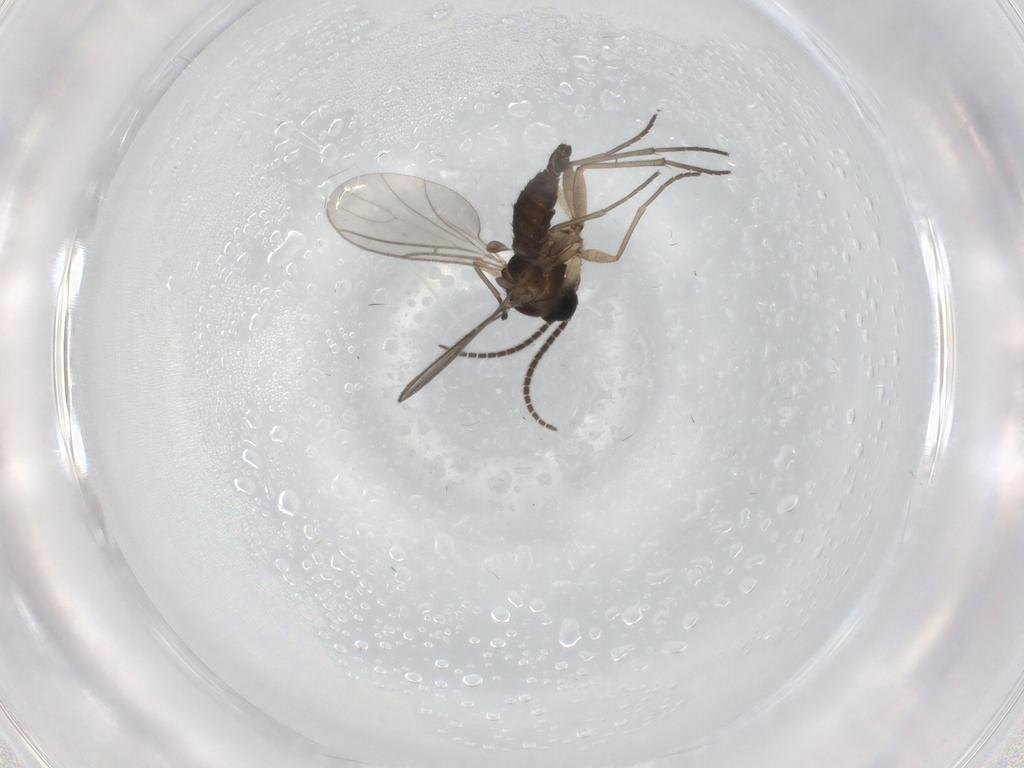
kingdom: Animalia
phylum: Arthropoda
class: Insecta
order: Diptera
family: Sciaridae
